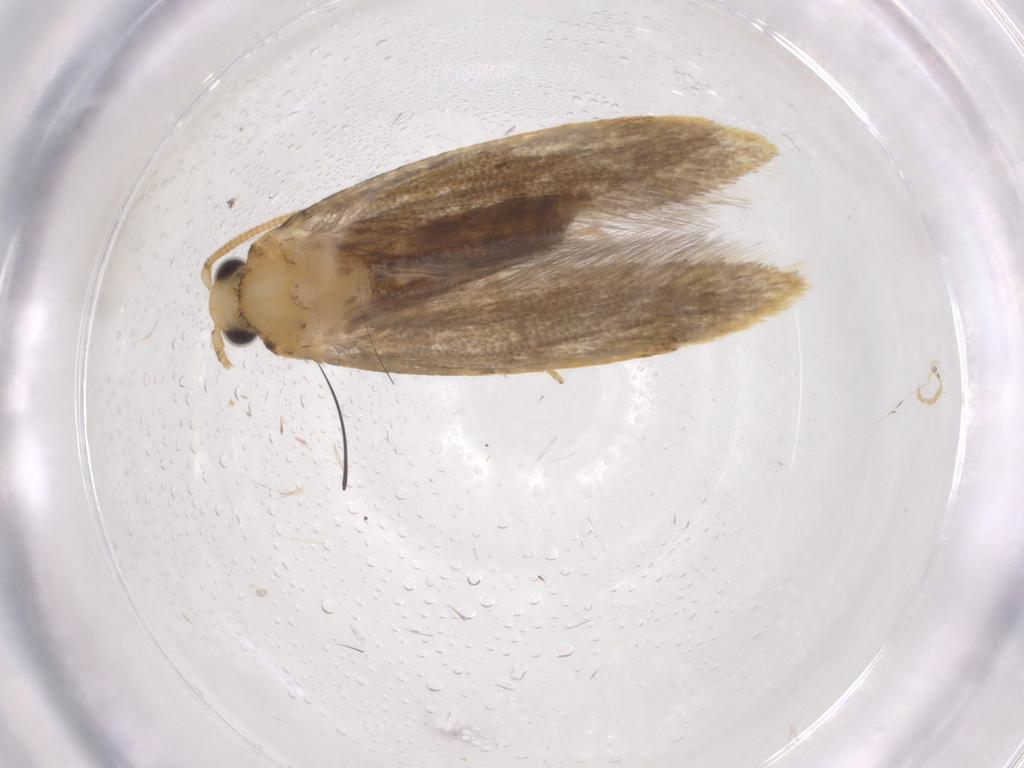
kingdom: Animalia
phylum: Arthropoda
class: Insecta
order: Lepidoptera
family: Tineidae
